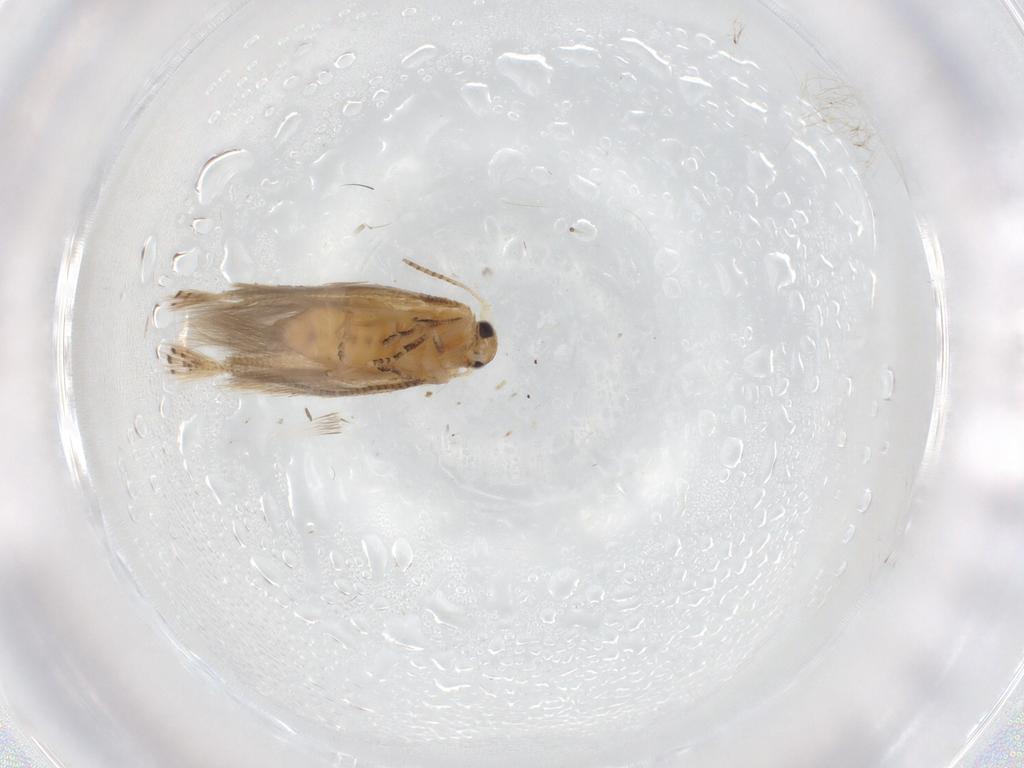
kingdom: Animalia
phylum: Arthropoda
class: Insecta
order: Lepidoptera
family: Bucculatricidae
